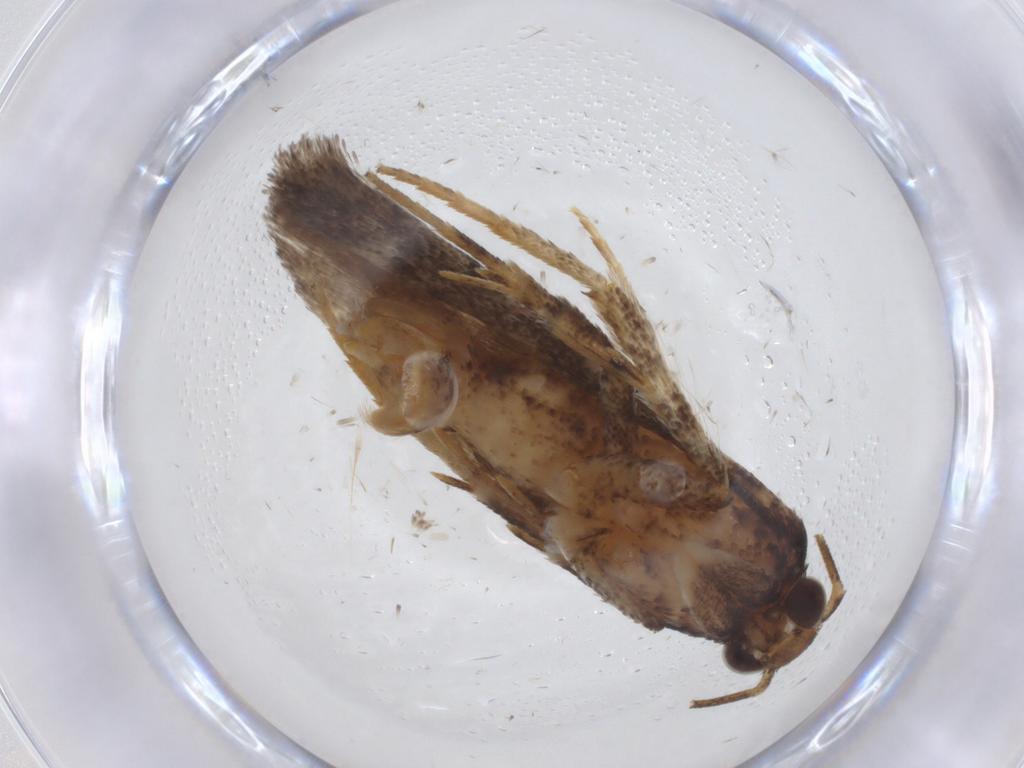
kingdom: Animalia
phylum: Arthropoda
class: Insecta
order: Lepidoptera
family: Gelechiidae
